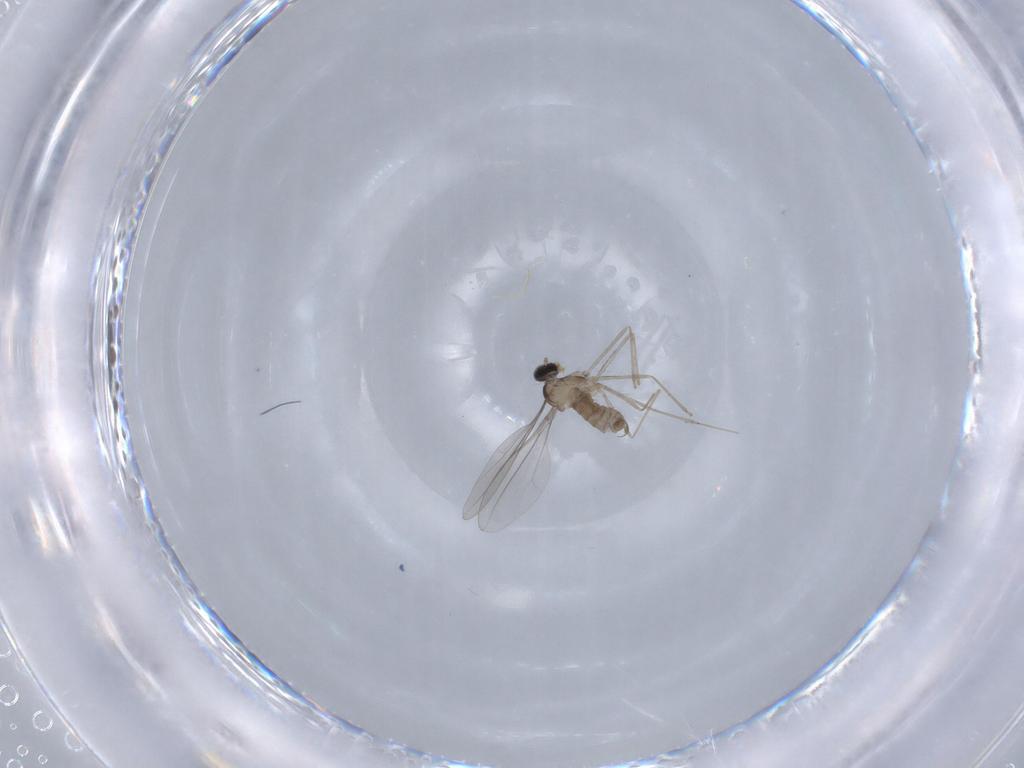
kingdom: Animalia
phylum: Arthropoda
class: Insecta
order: Diptera
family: Cecidomyiidae
